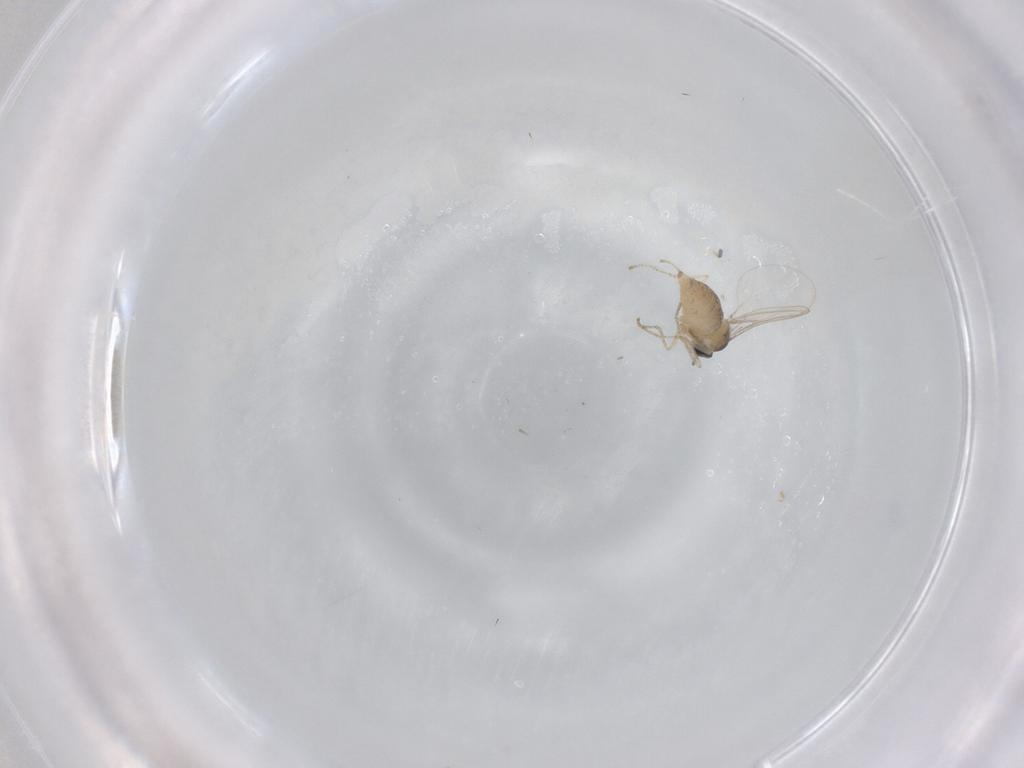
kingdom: Animalia
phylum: Arthropoda
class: Insecta
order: Diptera
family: Cecidomyiidae
